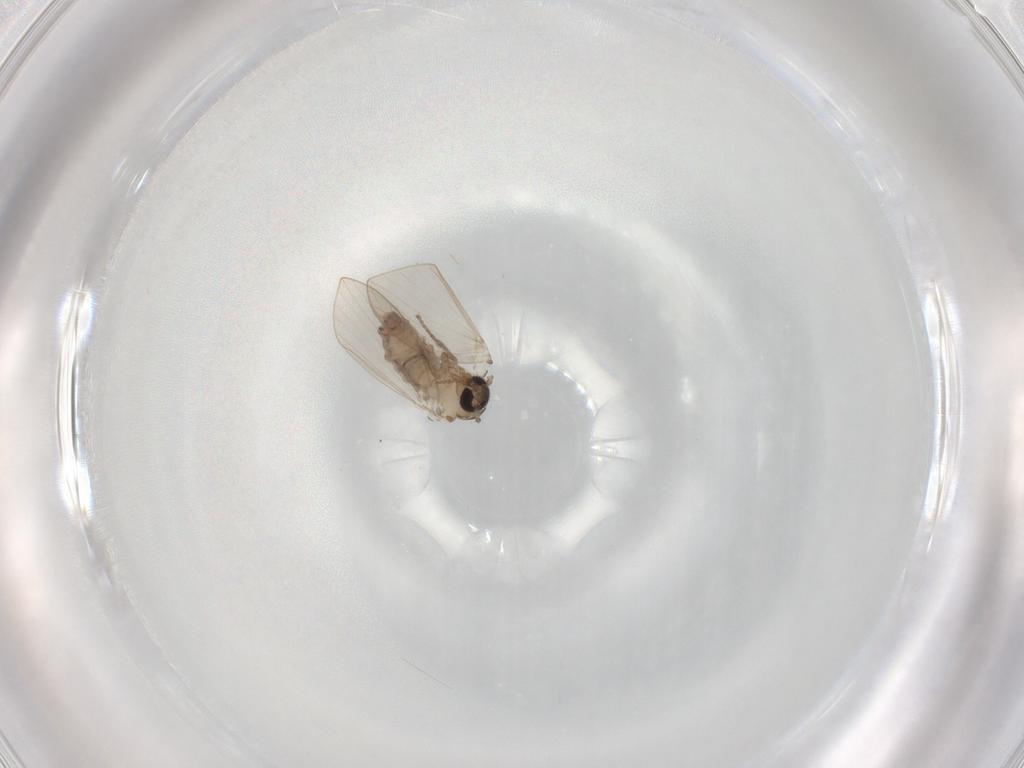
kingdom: Animalia
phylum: Arthropoda
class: Insecta
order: Diptera
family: Psychodidae
